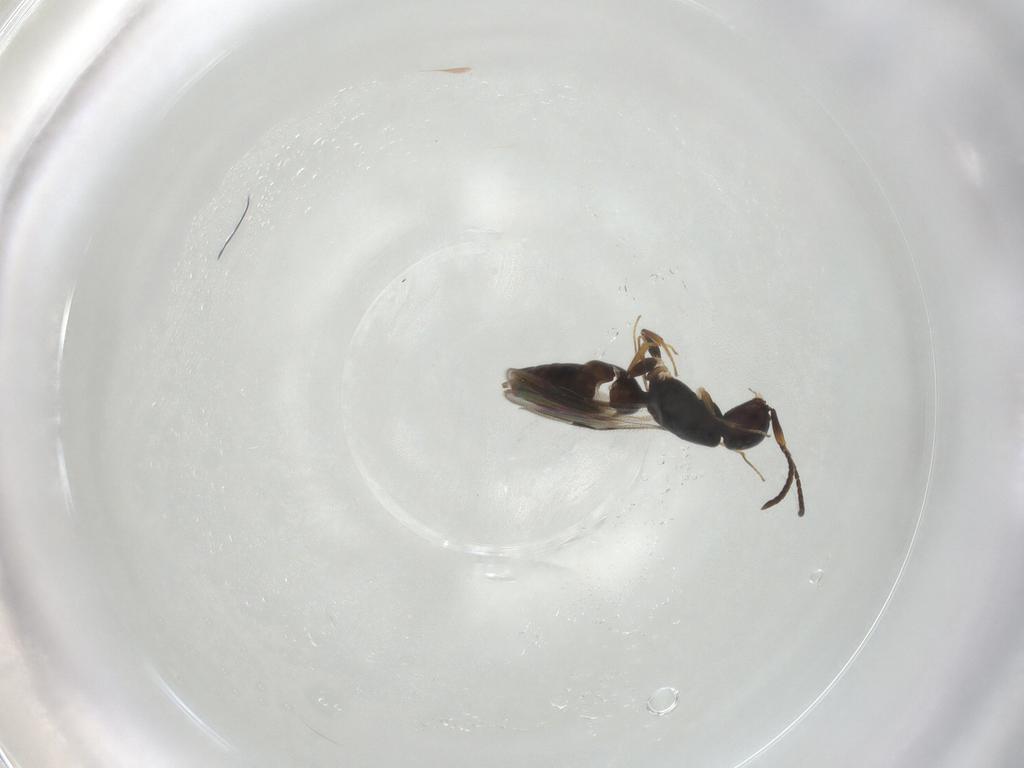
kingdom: Animalia
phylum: Arthropoda
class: Insecta
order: Hymenoptera
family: Megaspilidae
